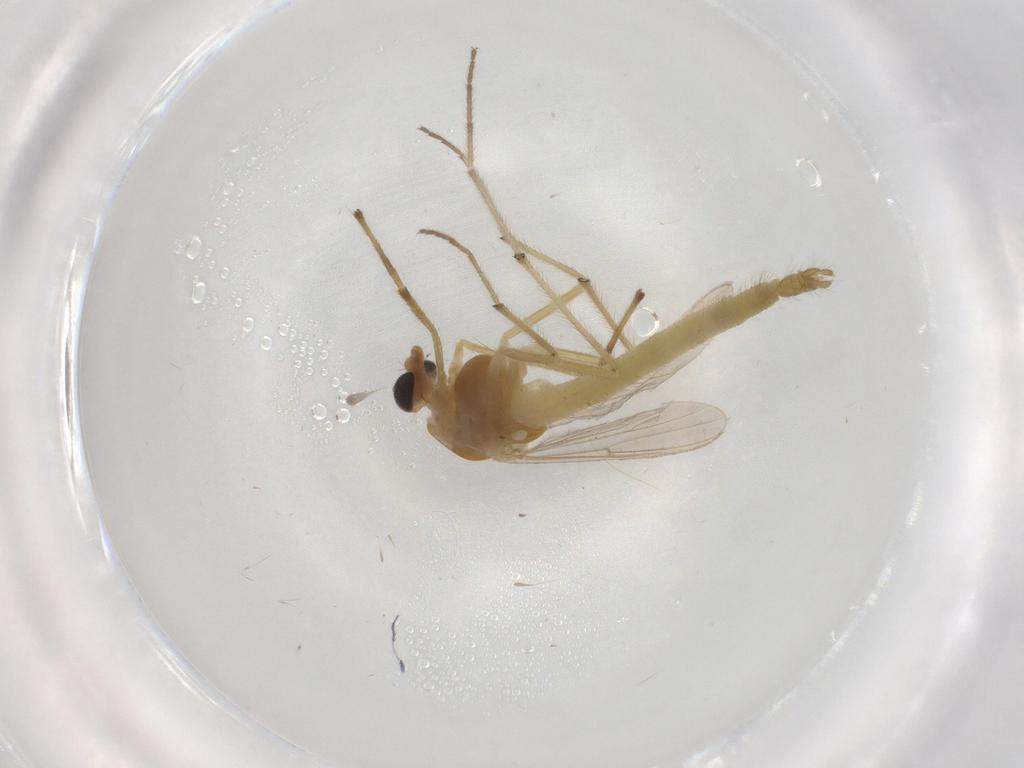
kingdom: Animalia
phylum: Arthropoda
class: Insecta
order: Diptera
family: Chironomidae
